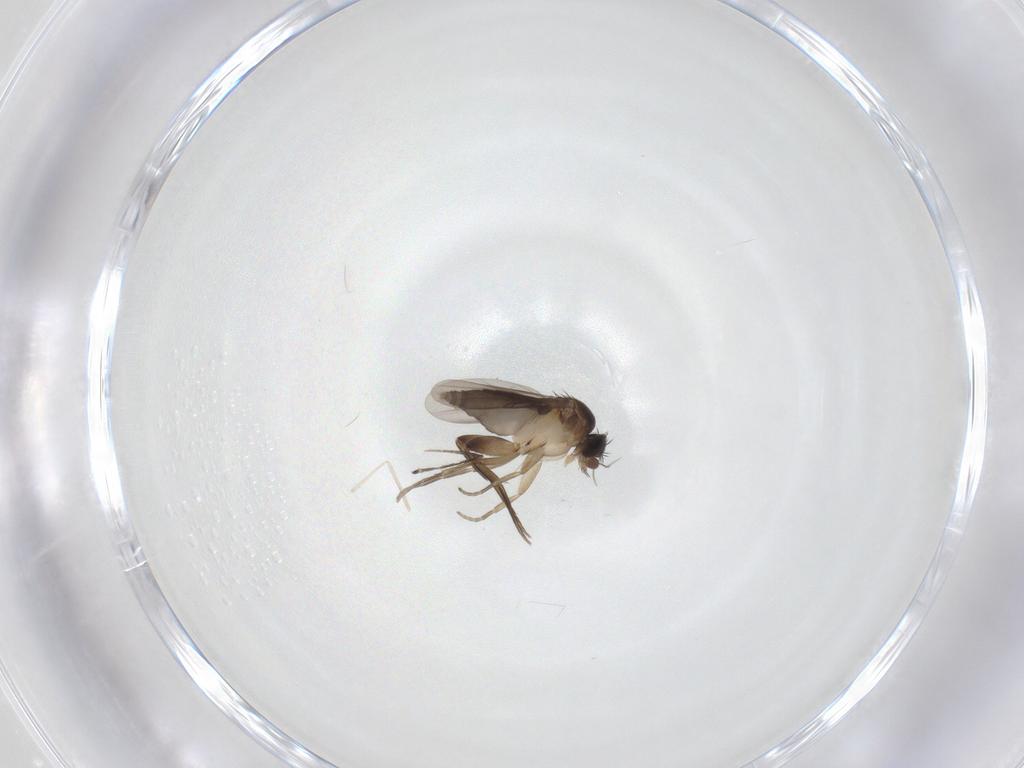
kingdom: Animalia
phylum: Arthropoda
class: Insecta
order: Diptera
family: Phoridae
